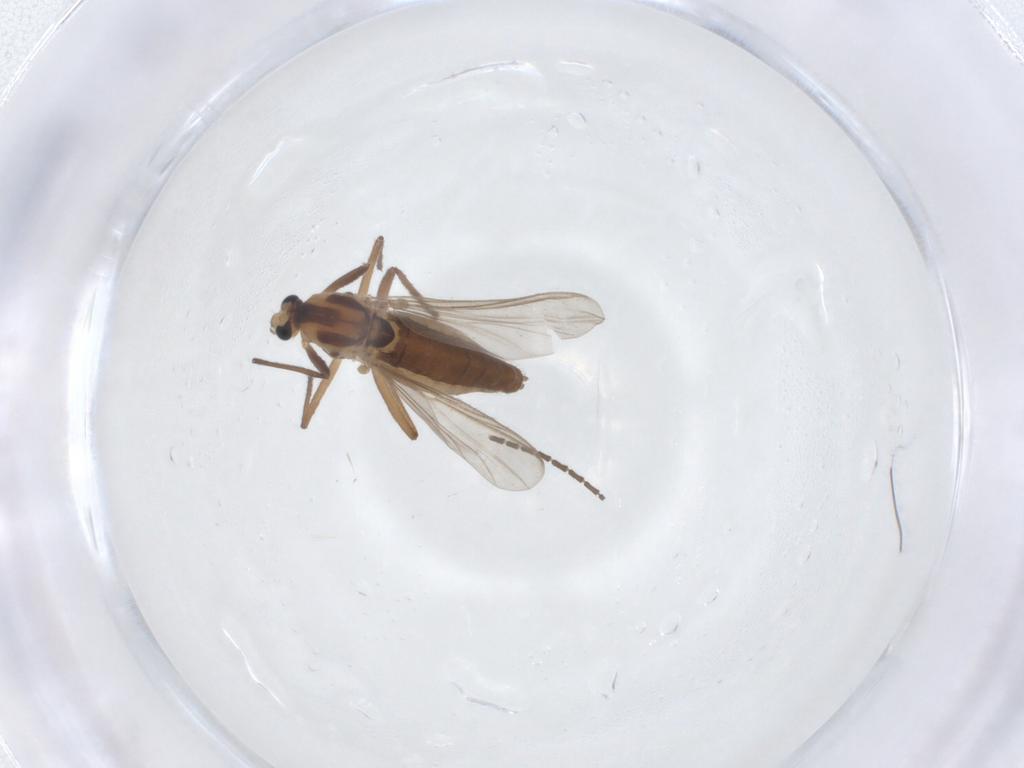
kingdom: Animalia
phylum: Arthropoda
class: Insecta
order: Diptera
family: Chironomidae
